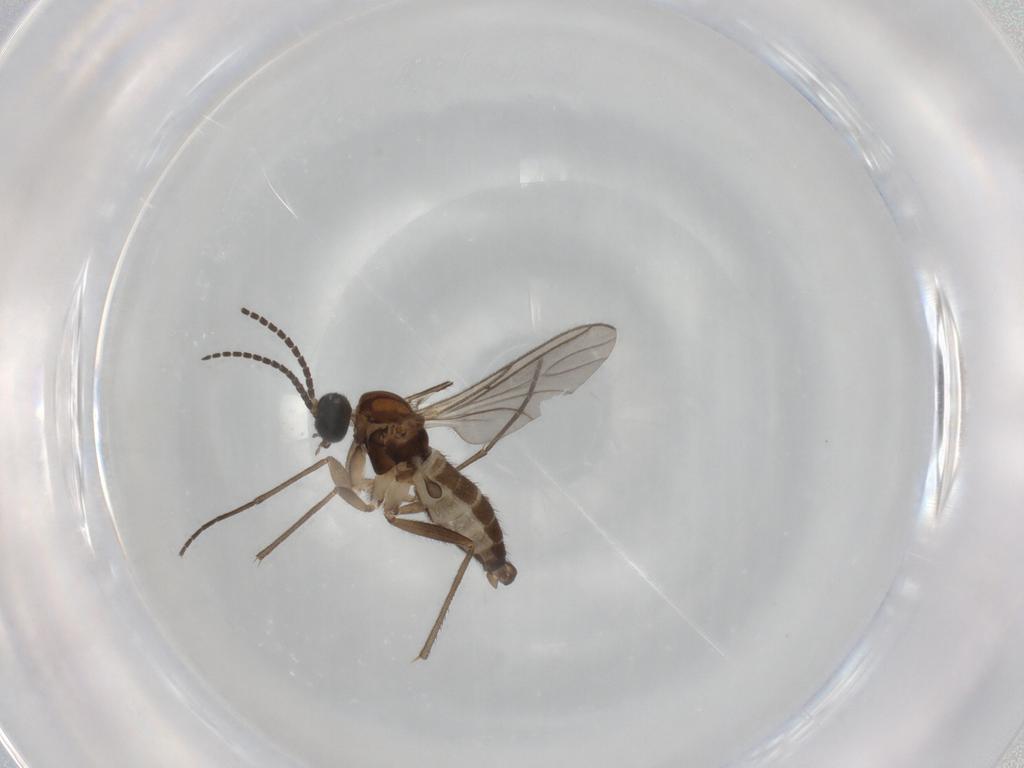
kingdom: Animalia
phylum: Arthropoda
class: Insecta
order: Diptera
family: Sciaridae
